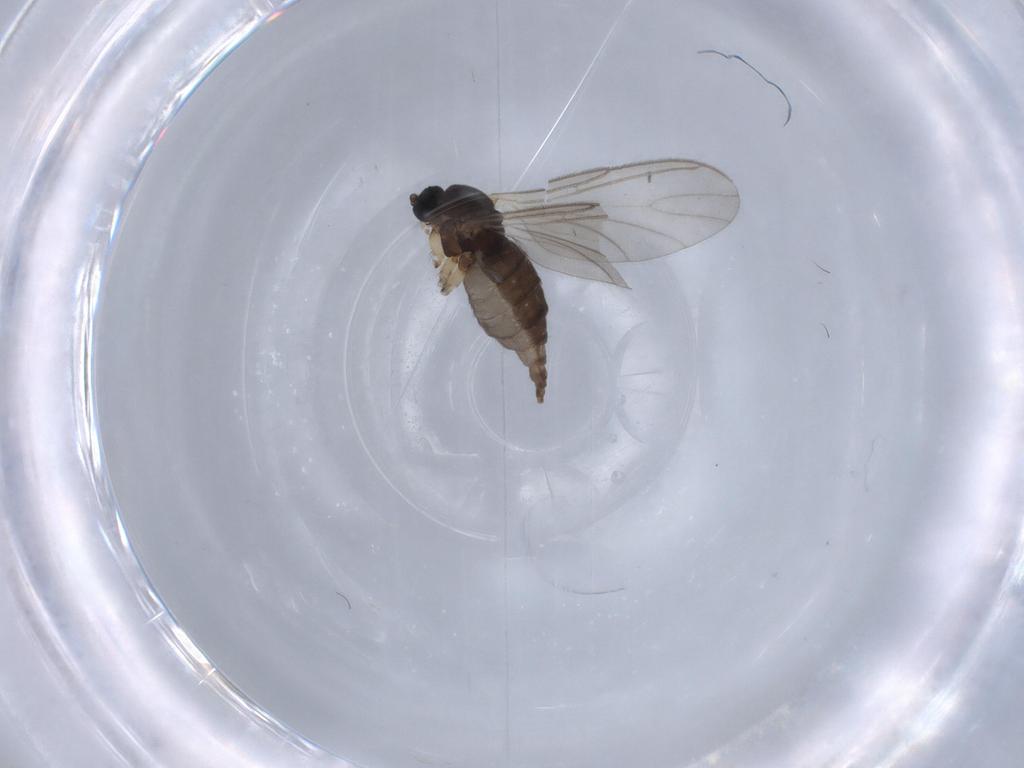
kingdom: Animalia
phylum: Arthropoda
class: Insecta
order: Diptera
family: Sciaridae
